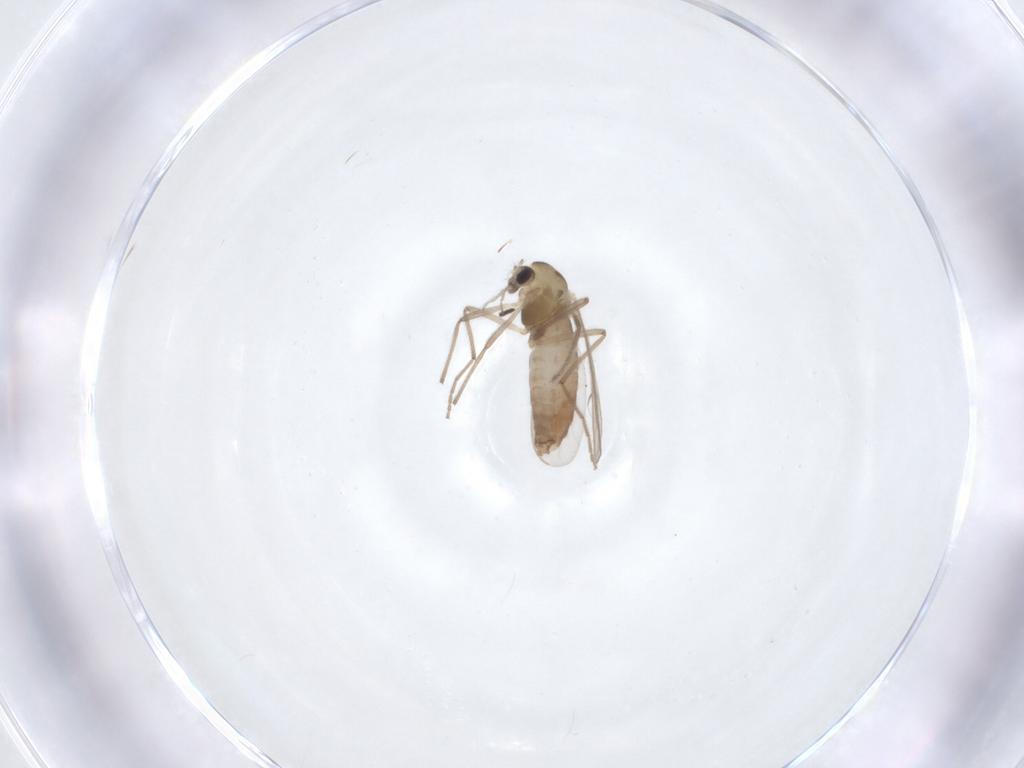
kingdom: Animalia
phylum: Arthropoda
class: Insecta
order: Diptera
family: Chironomidae
